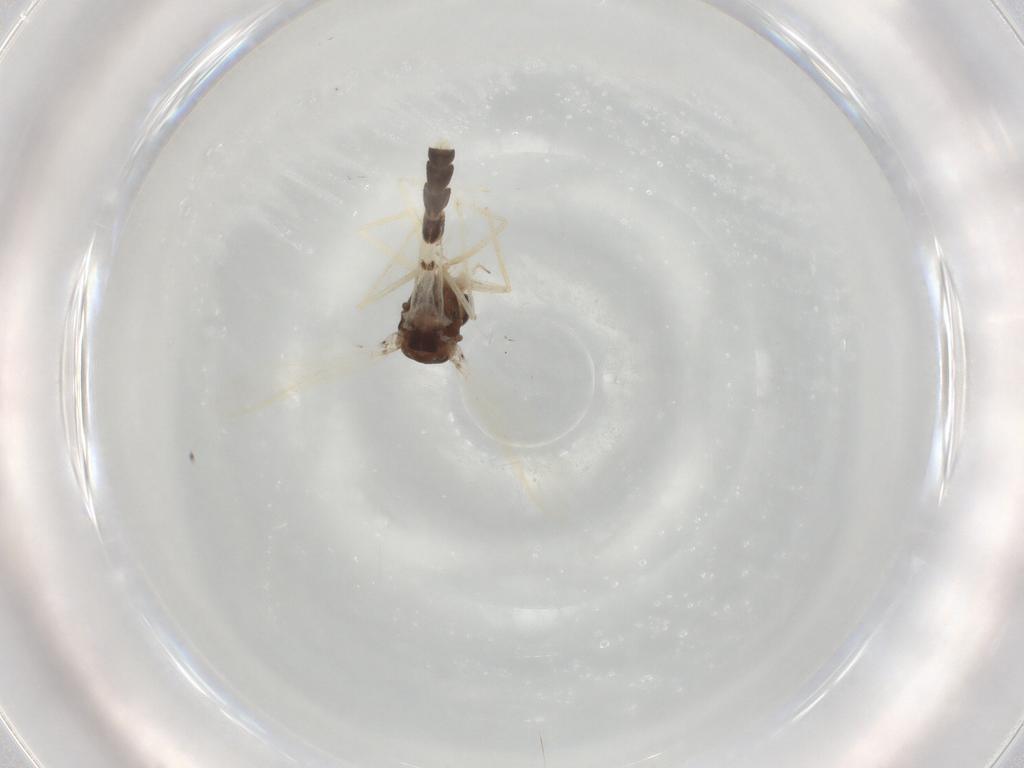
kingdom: Animalia
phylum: Arthropoda
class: Insecta
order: Diptera
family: Chironomidae
